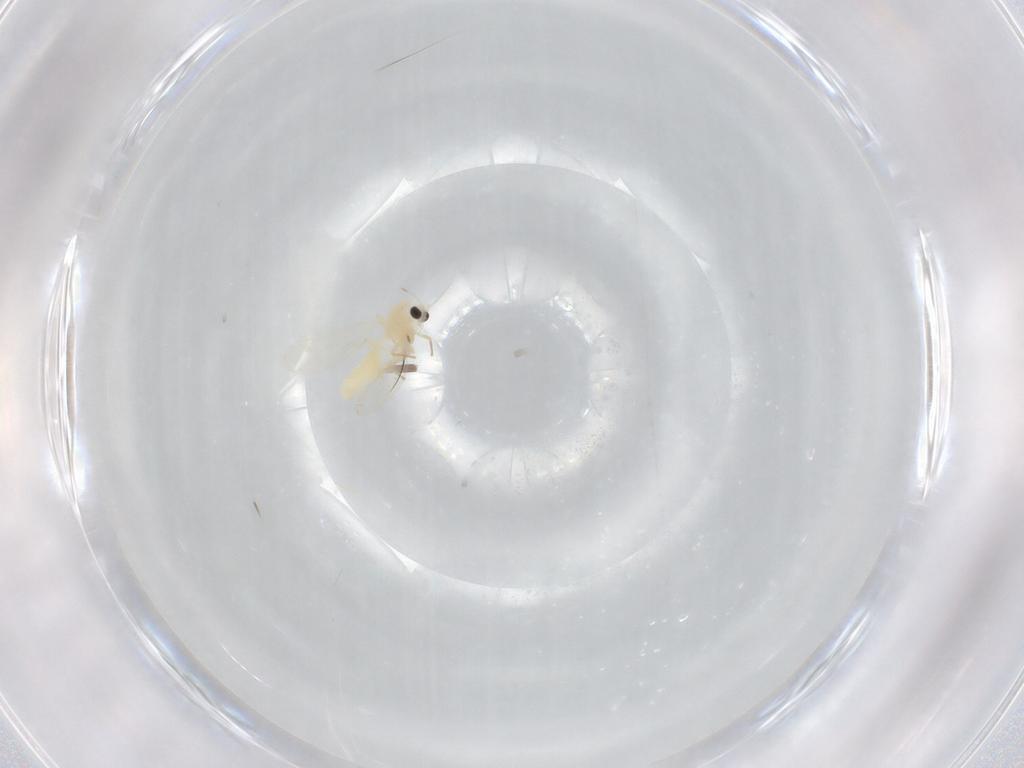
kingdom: Animalia
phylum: Arthropoda
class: Insecta
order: Diptera
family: Chironomidae
